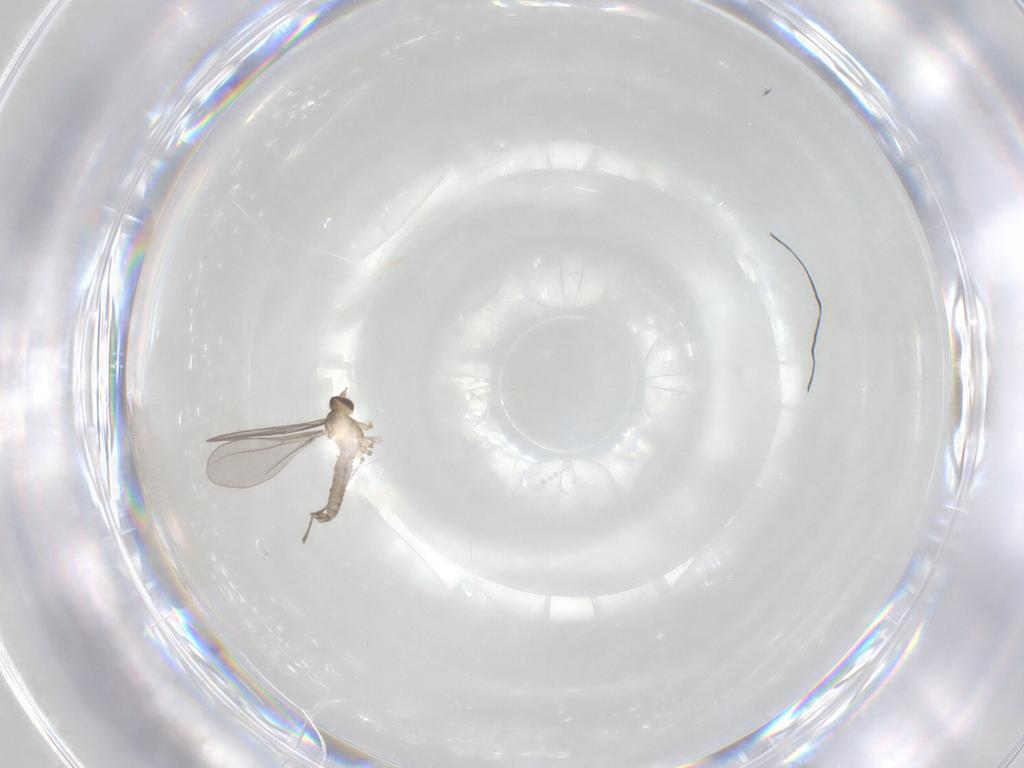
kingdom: Animalia
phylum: Arthropoda
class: Insecta
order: Diptera
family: Cecidomyiidae
